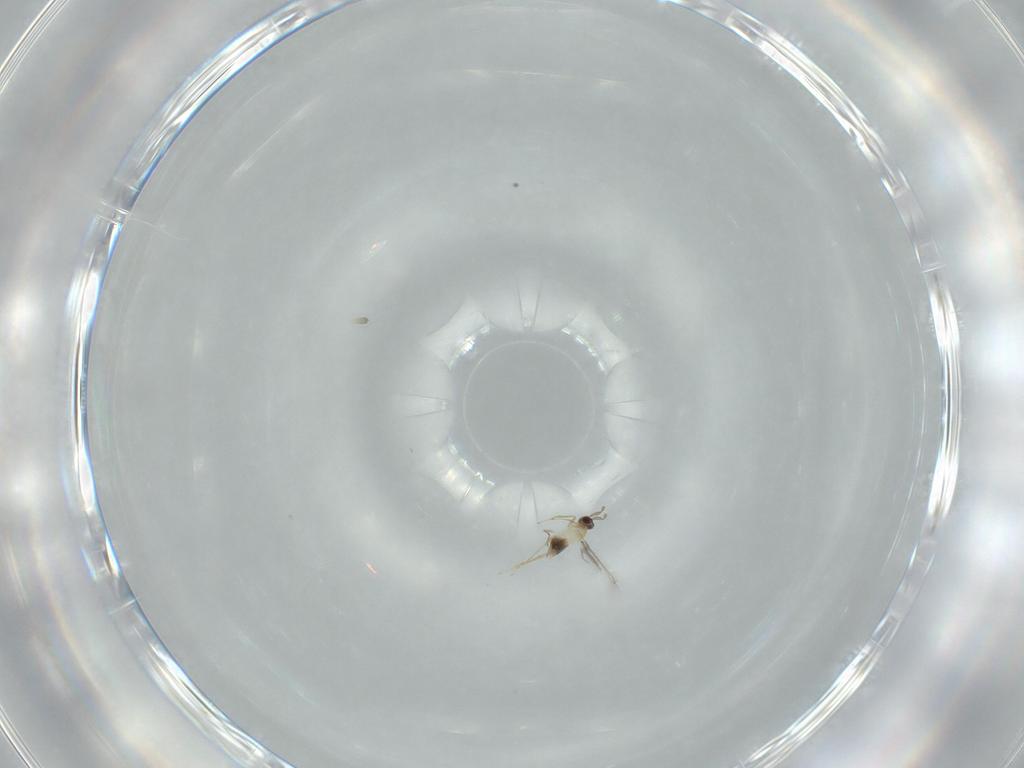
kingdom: Animalia
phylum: Arthropoda
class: Insecta
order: Hymenoptera
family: Mymaridae
